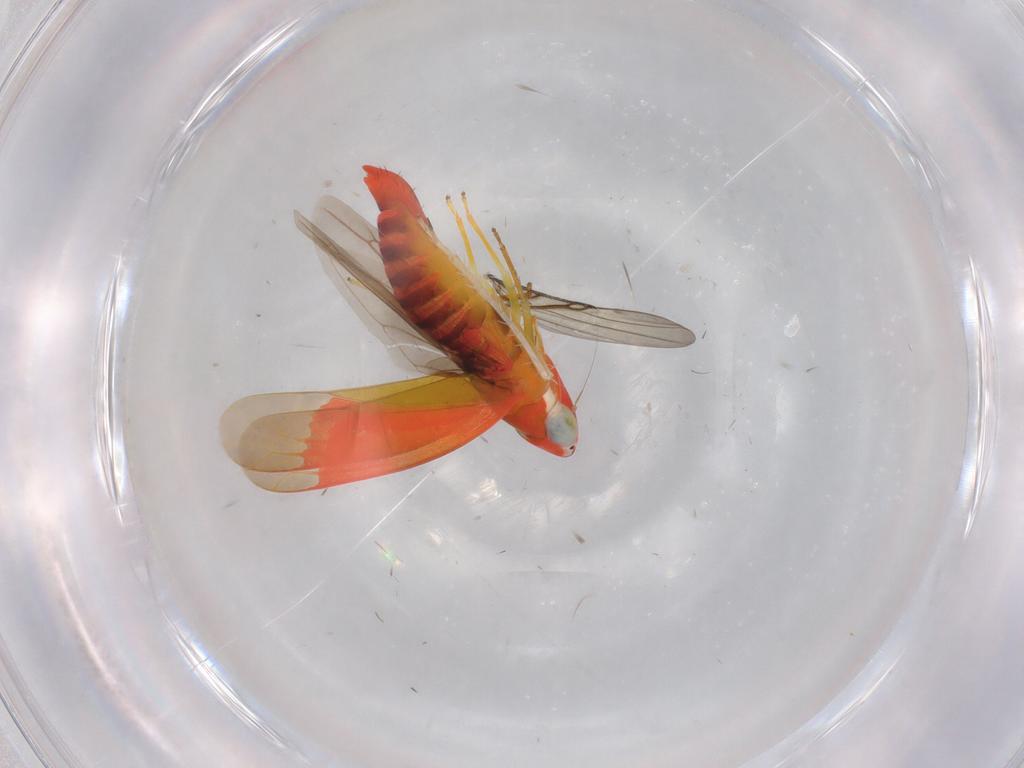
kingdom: Animalia
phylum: Arthropoda
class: Insecta
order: Hemiptera
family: Cicadellidae
